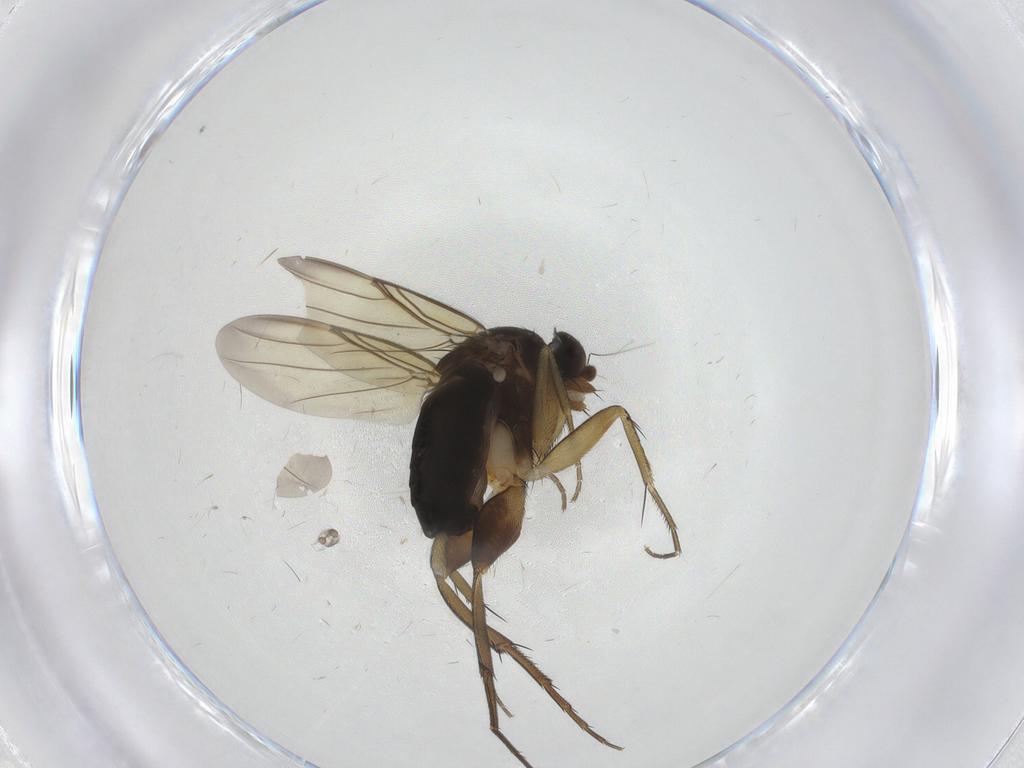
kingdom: Animalia
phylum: Arthropoda
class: Insecta
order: Diptera
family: Phoridae
